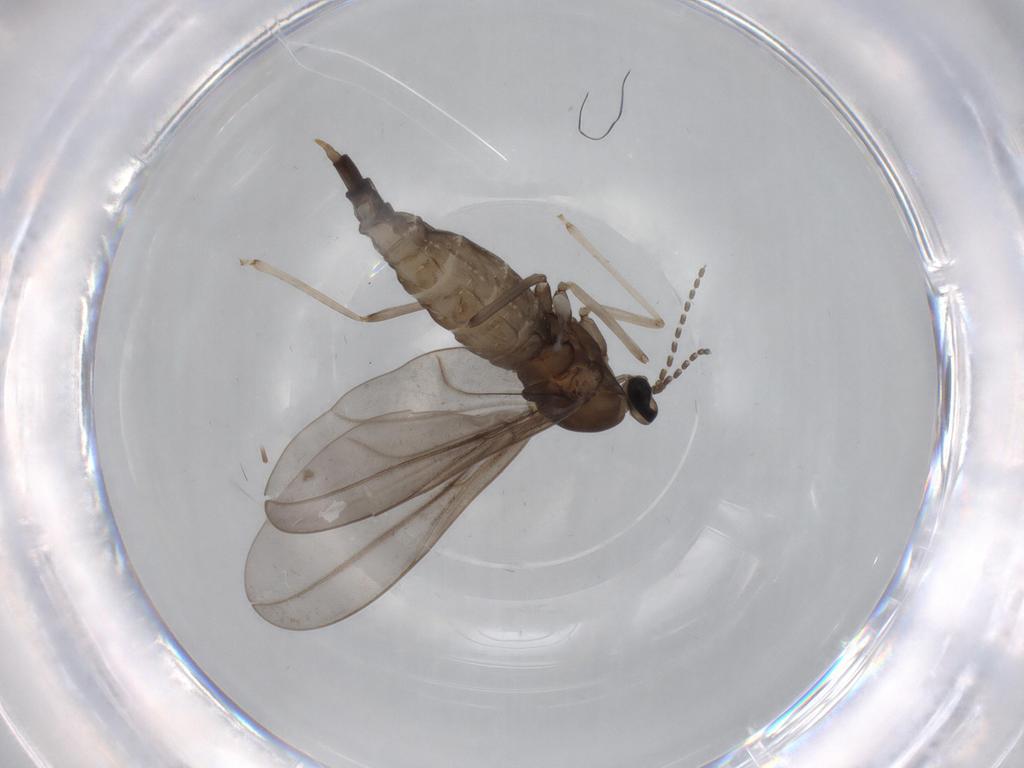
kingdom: Animalia
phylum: Arthropoda
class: Insecta
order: Diptera
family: Cecidomyiidae
